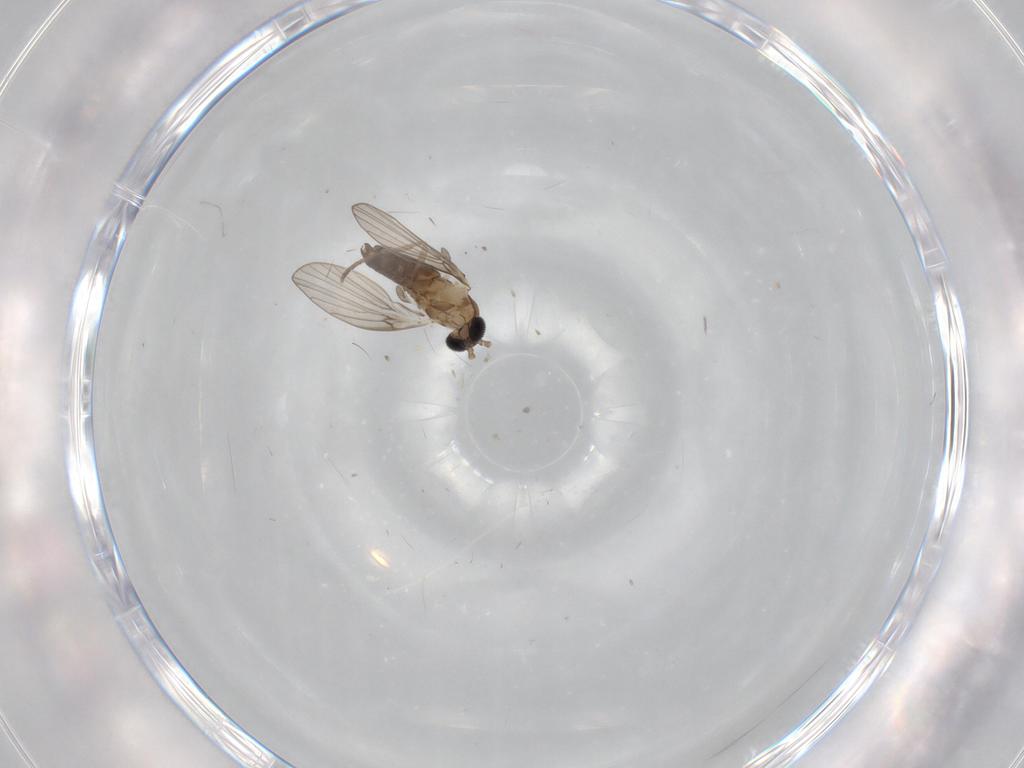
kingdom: Animalia
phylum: Arthropoda
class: Insecta
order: Diptera
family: Psychodidae
